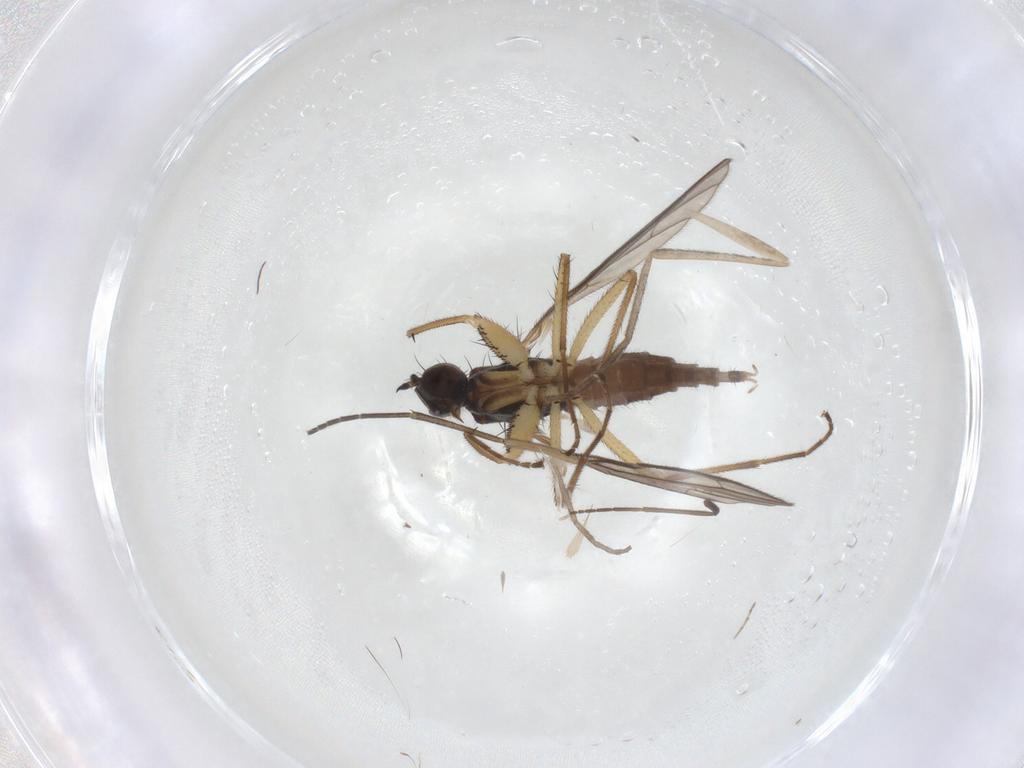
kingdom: Animalia
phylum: Arthropoda
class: Insecta
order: Diptera
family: Empididae
